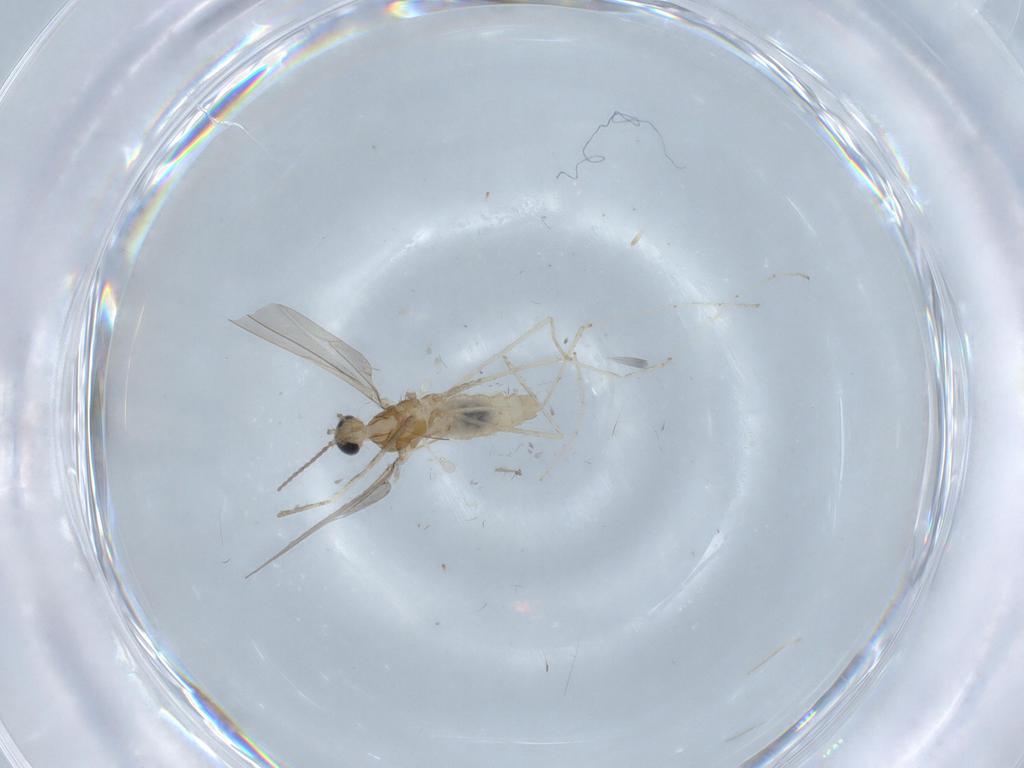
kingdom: Animalia
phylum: Arthropoda
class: Insecta
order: Diptera
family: Cecidomyiidae
